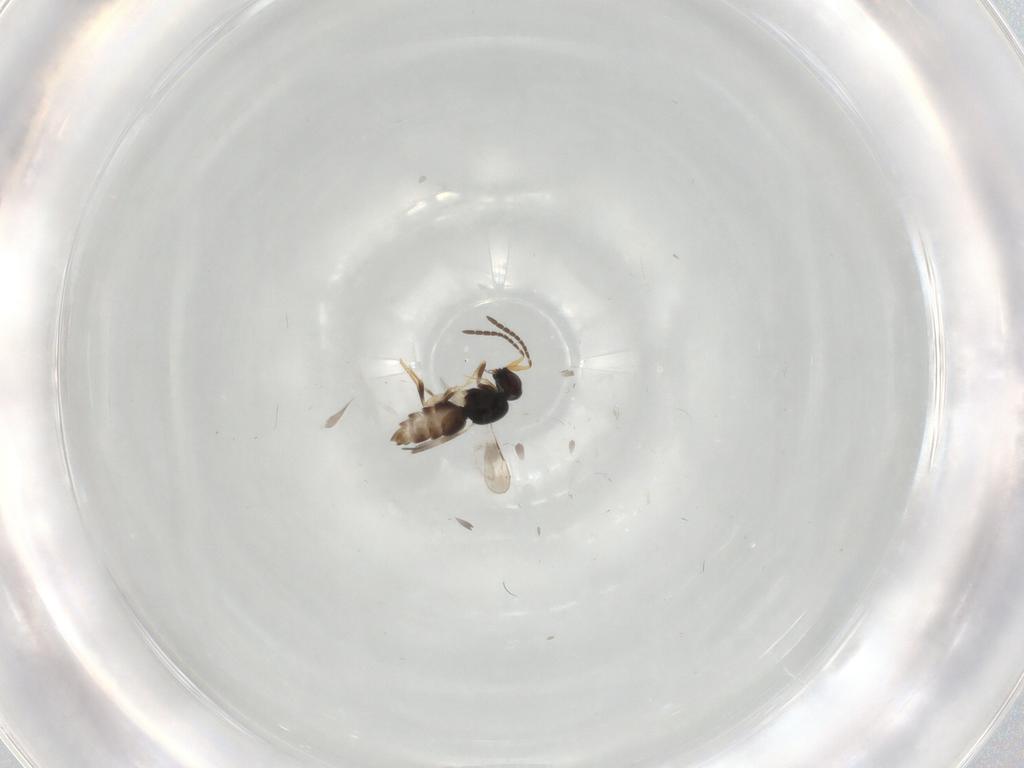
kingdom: Animalia
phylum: Arthropoda
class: Insecta
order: Hymenoptera
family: Ceraphronidae
